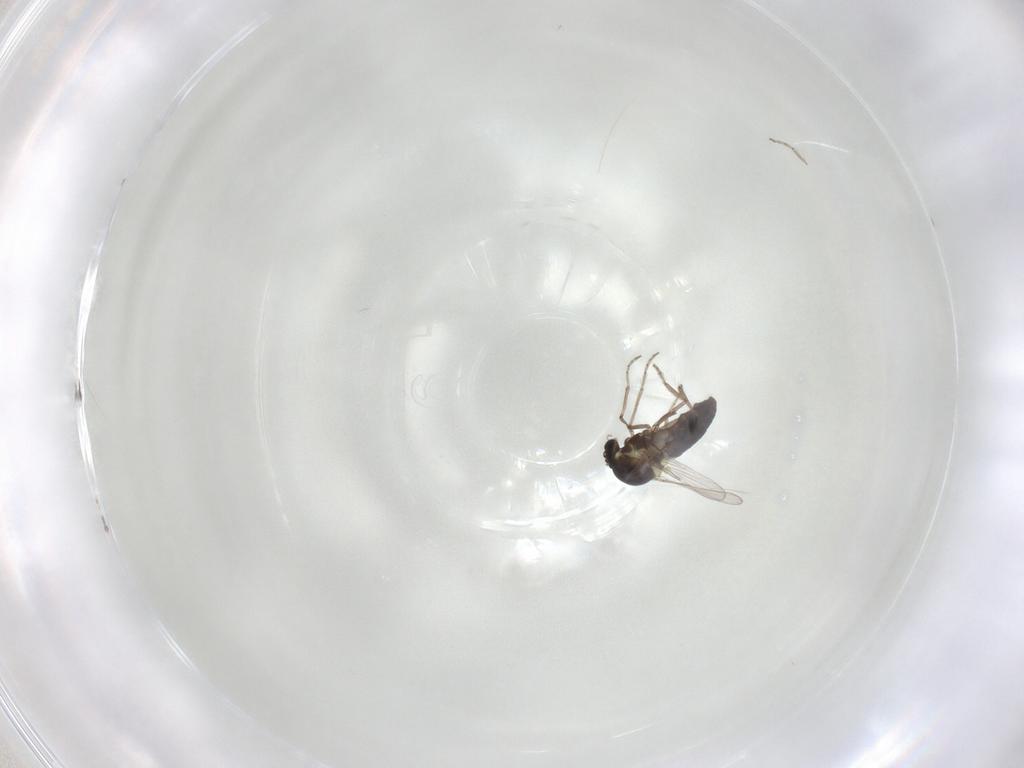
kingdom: Animalia
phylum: Arthropoda
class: Insecta
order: Diptera
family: Ceratopogonidae
